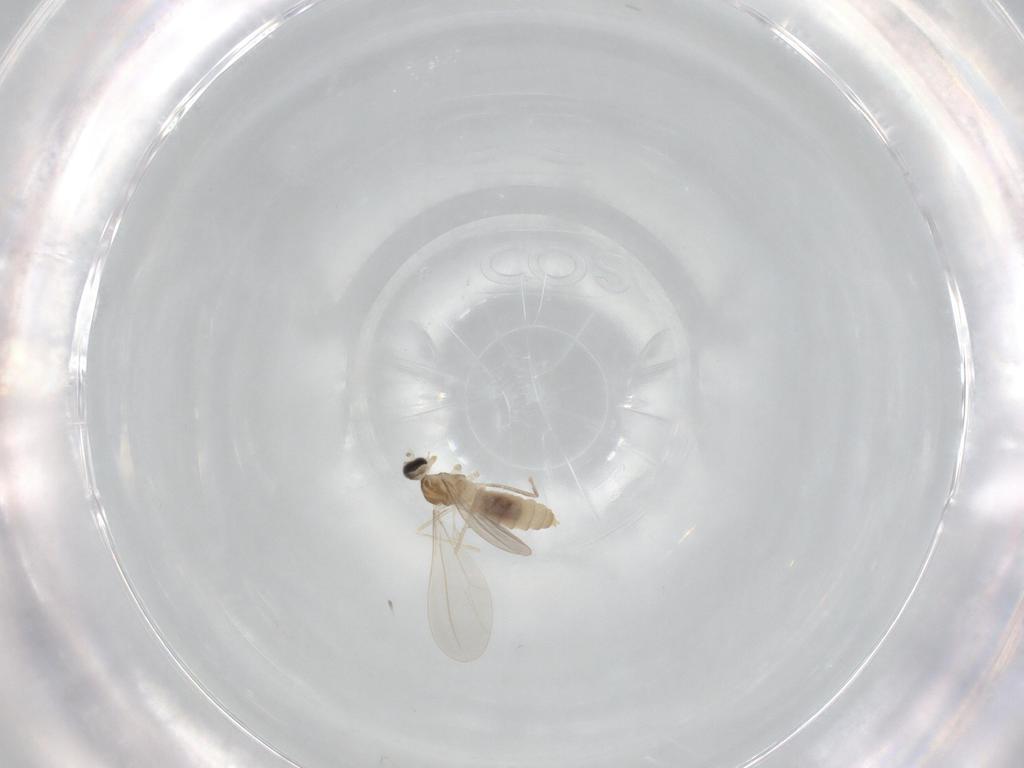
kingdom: Animalia
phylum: Arthropoda
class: Insecta
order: Diptera
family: Cecidomyiidae
